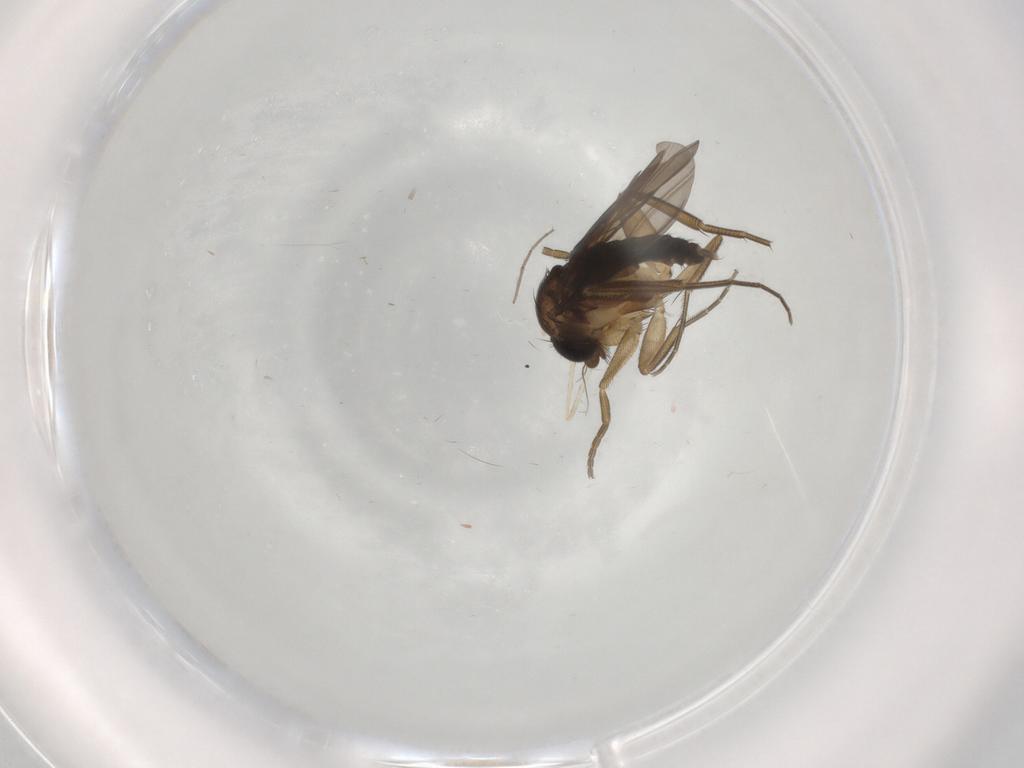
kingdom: Animalia
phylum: Arthropoda
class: Insecta
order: Diptera
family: Phoridae
